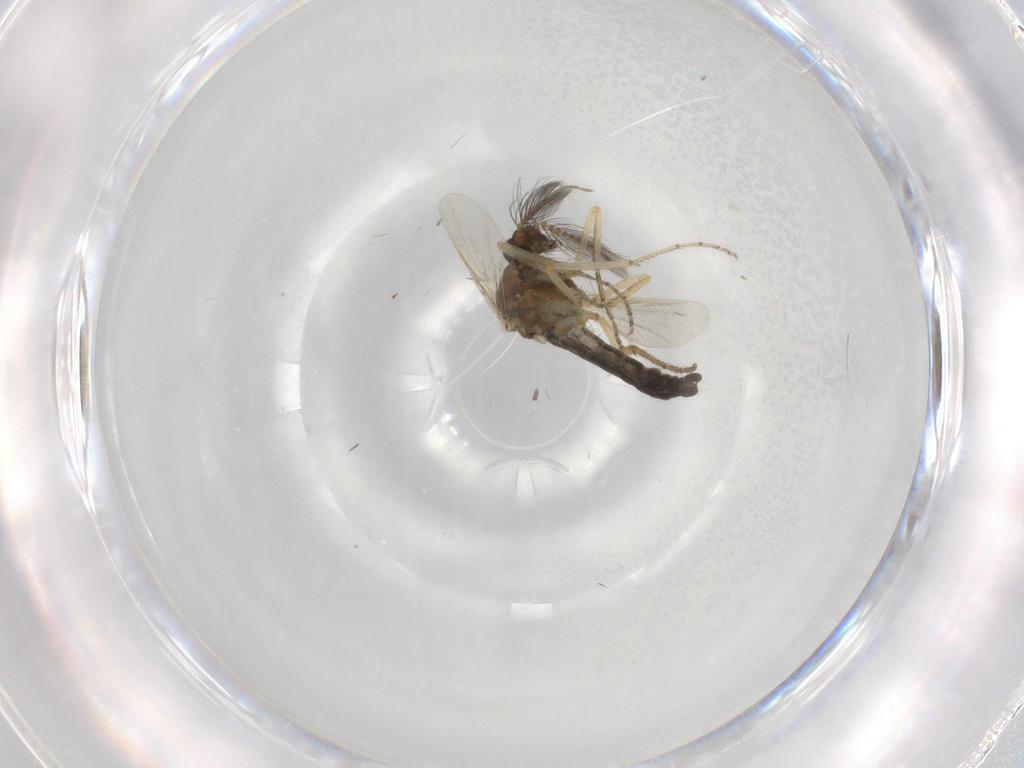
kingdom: Animalia
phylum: Arthropoda
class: Insecta
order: Diptera
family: Ceratopogonidae
